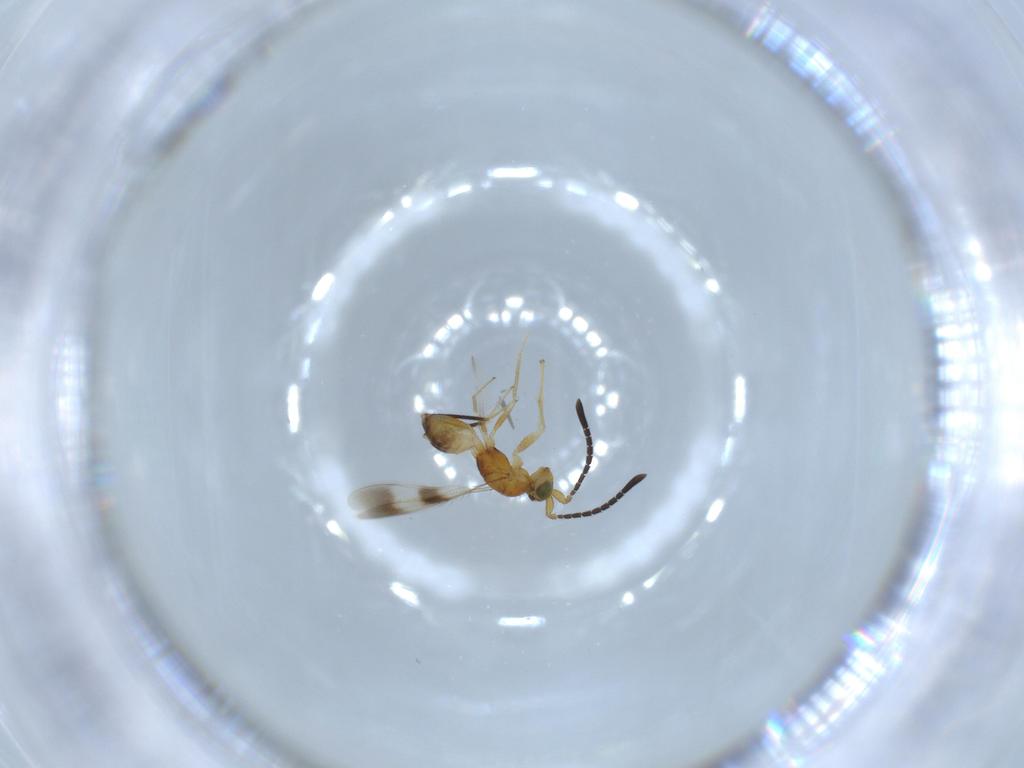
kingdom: Animalia
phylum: Arthropoda
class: Insecta
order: Hymenoptera
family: Mymaridae
